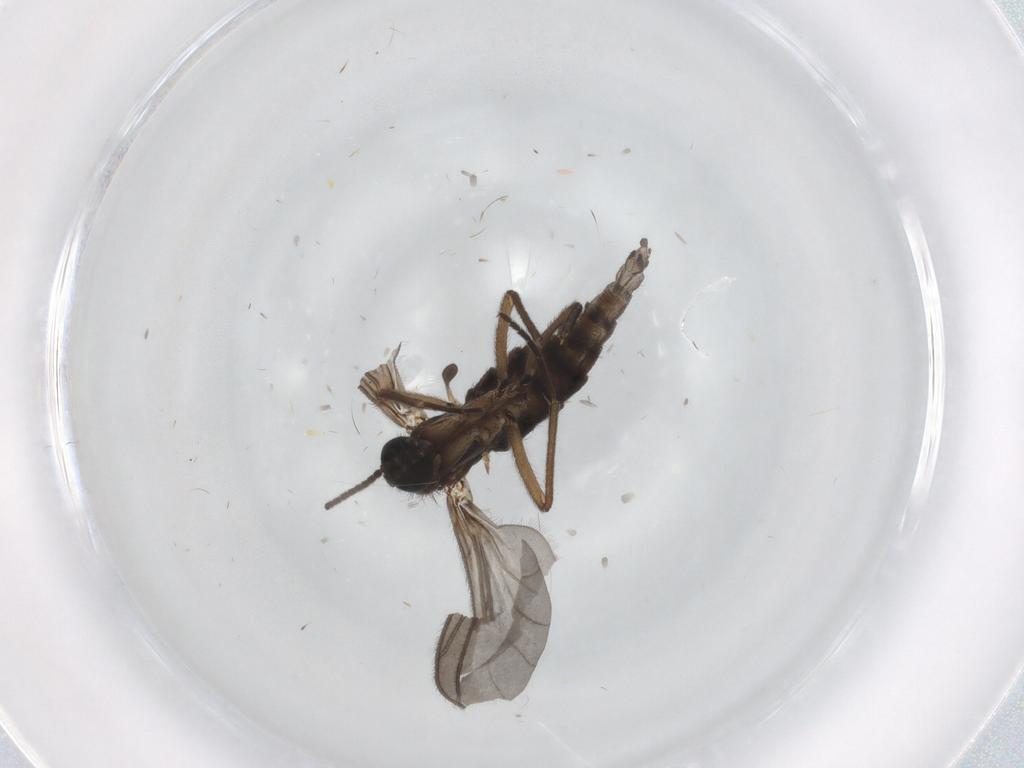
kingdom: Animalia
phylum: Arthropoda
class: Insecta
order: Diptera
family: Sciaridae
